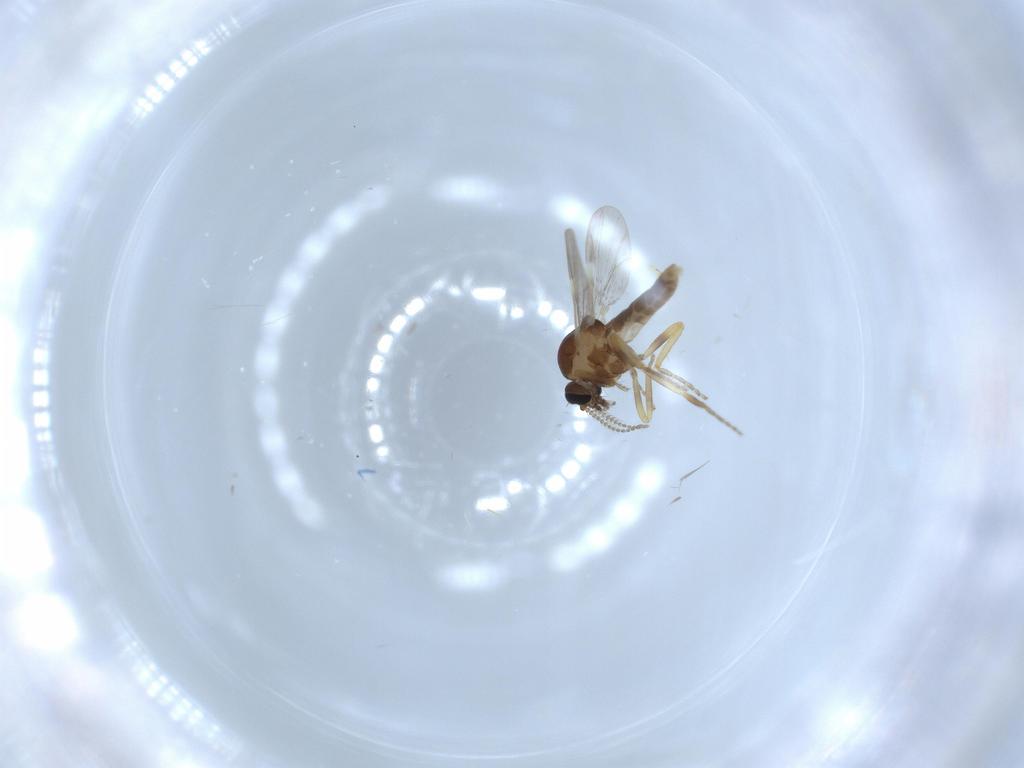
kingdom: Animalia
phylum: Arthropoda
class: Insecta
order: Diptera
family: Ceratopogonidae
